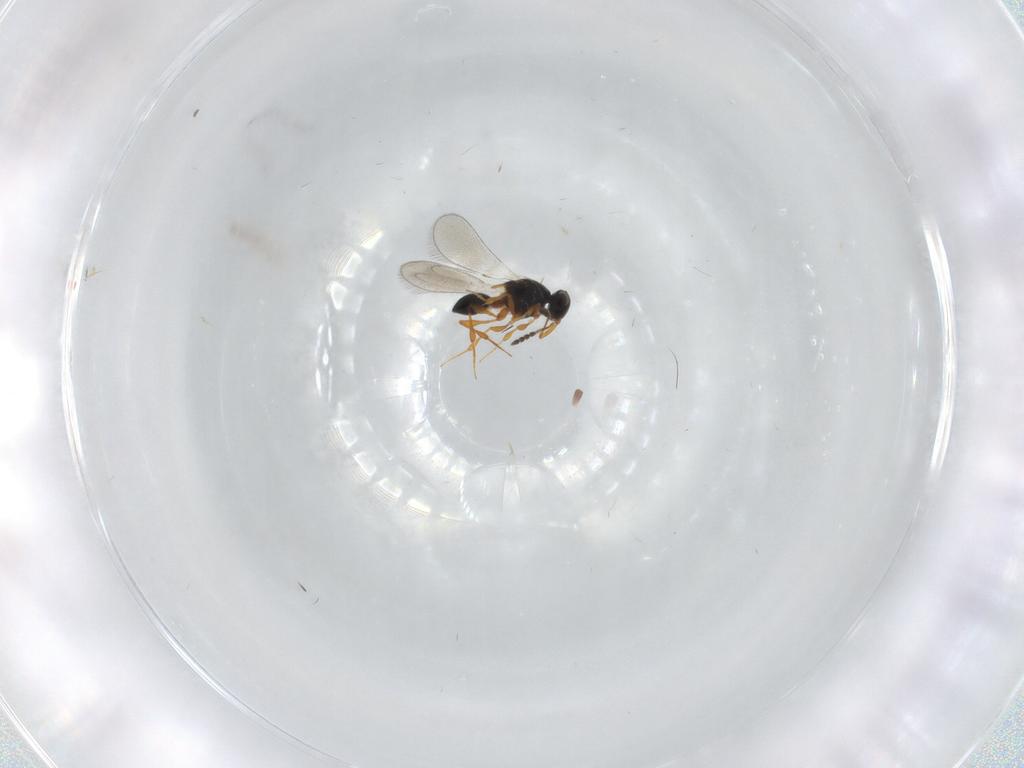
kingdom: Animalia
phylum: Arthropoda
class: Insecta
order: Hymenoptera
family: Platygastridae
